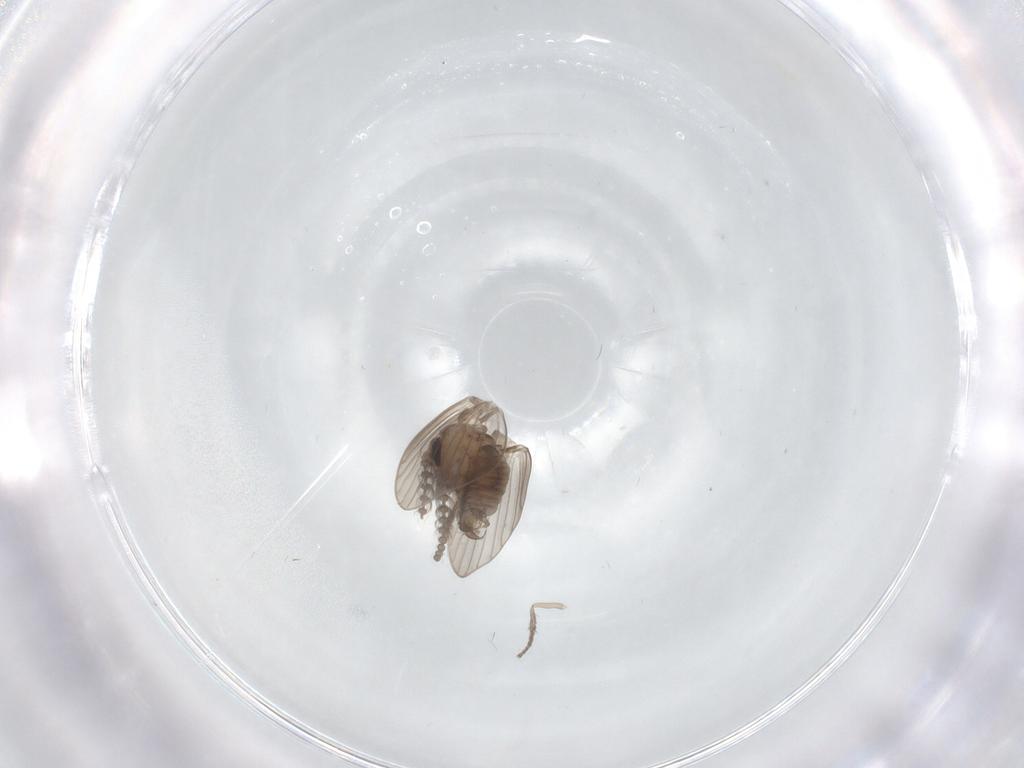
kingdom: Animalia
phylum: Arthropoda
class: Insecta
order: Diptera
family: Psychodidae
